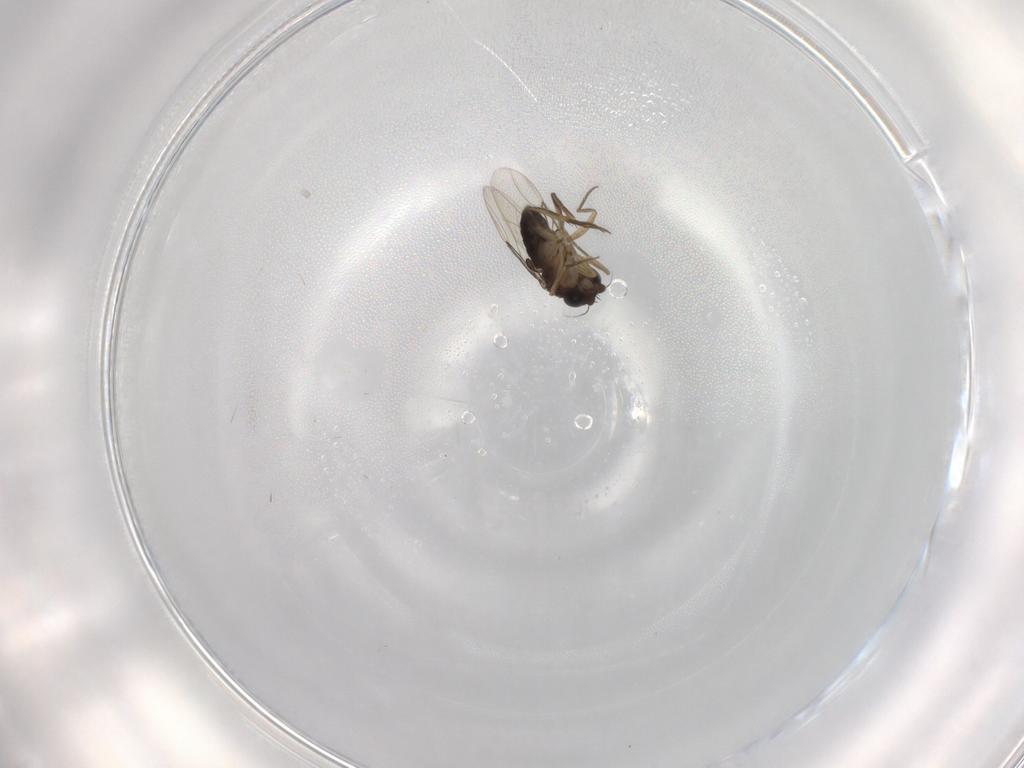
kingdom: Animalia
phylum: Arthropoda
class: Insecta
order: Diptera
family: Phoridae
